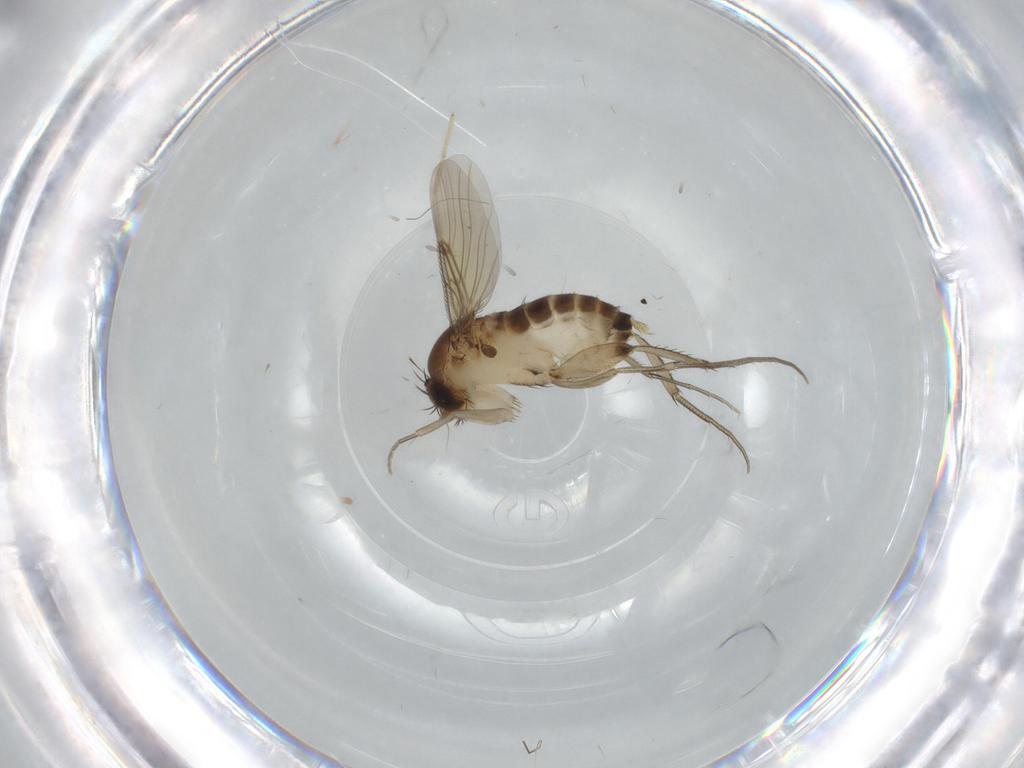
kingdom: Animalia
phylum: Arthropoda
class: Insecta
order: Diptera
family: Phoridae
